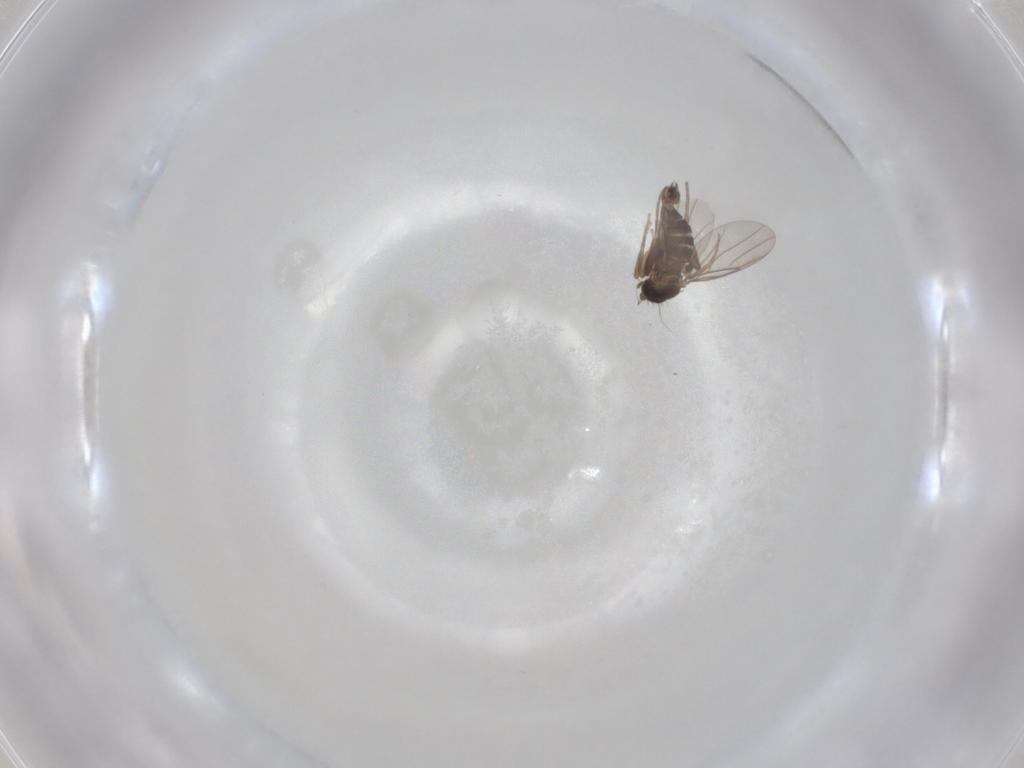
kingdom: Animalia
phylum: Arthropoda
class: Insecta
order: Diptera
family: Phoridae
